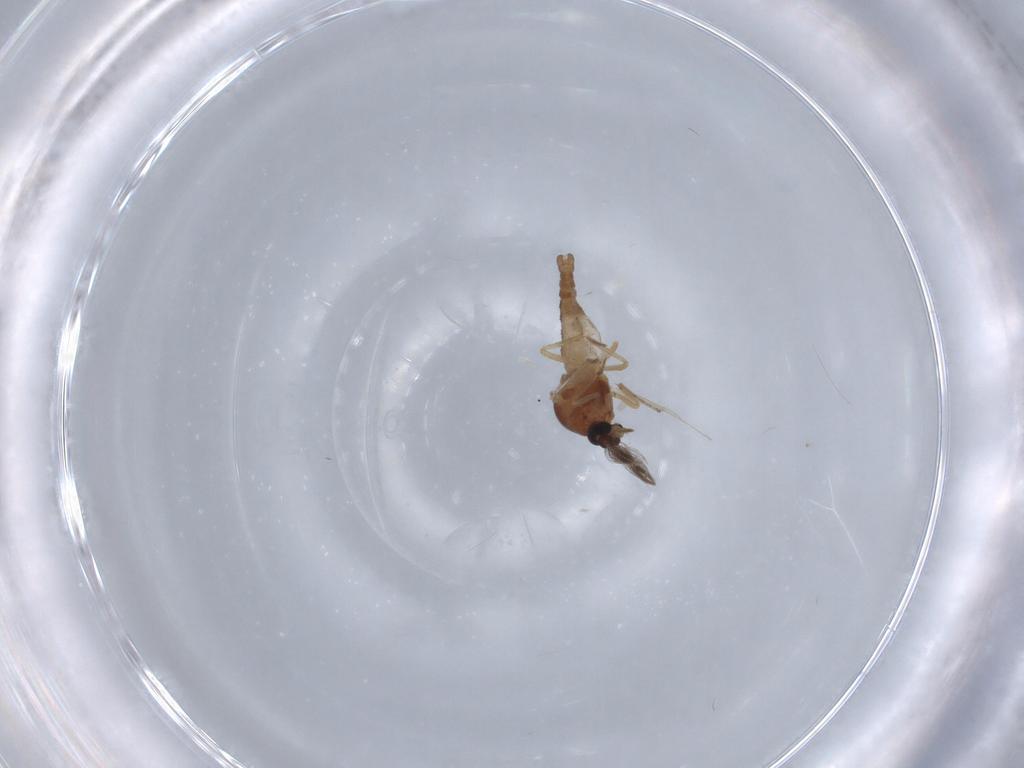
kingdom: Animalia
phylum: Arthropoda
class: Insecta
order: Diptera
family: Ceratopogonidae
